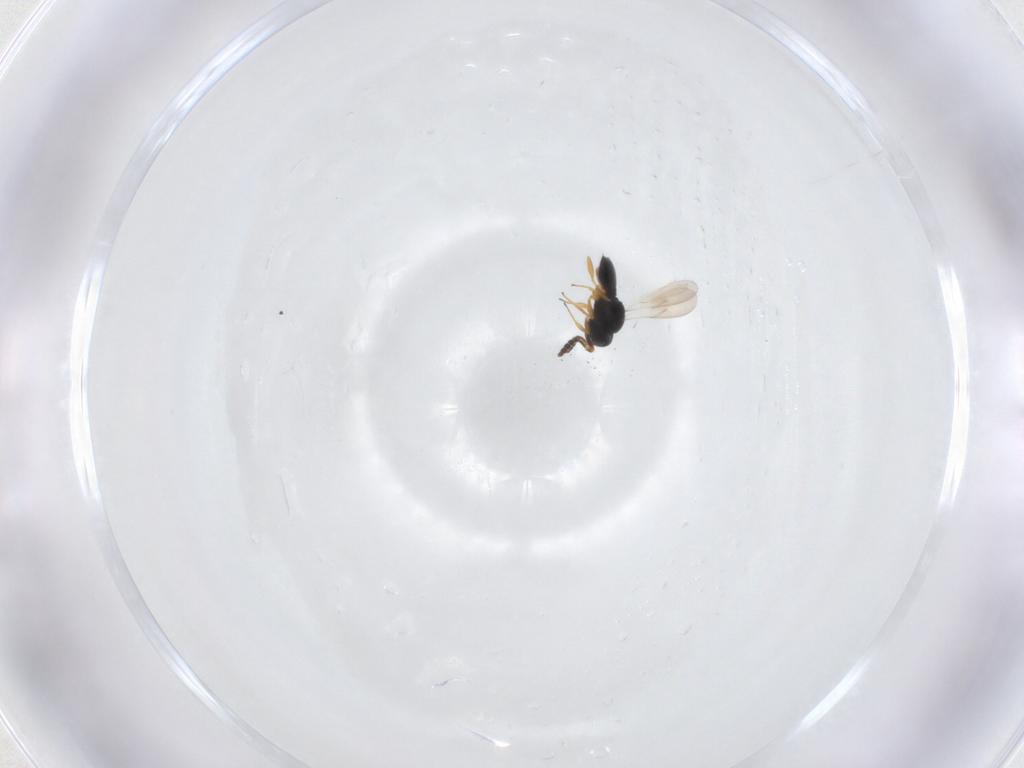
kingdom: Animalia
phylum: Arthropoda
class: Insecta
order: Hymenoptera
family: Scelionidae
